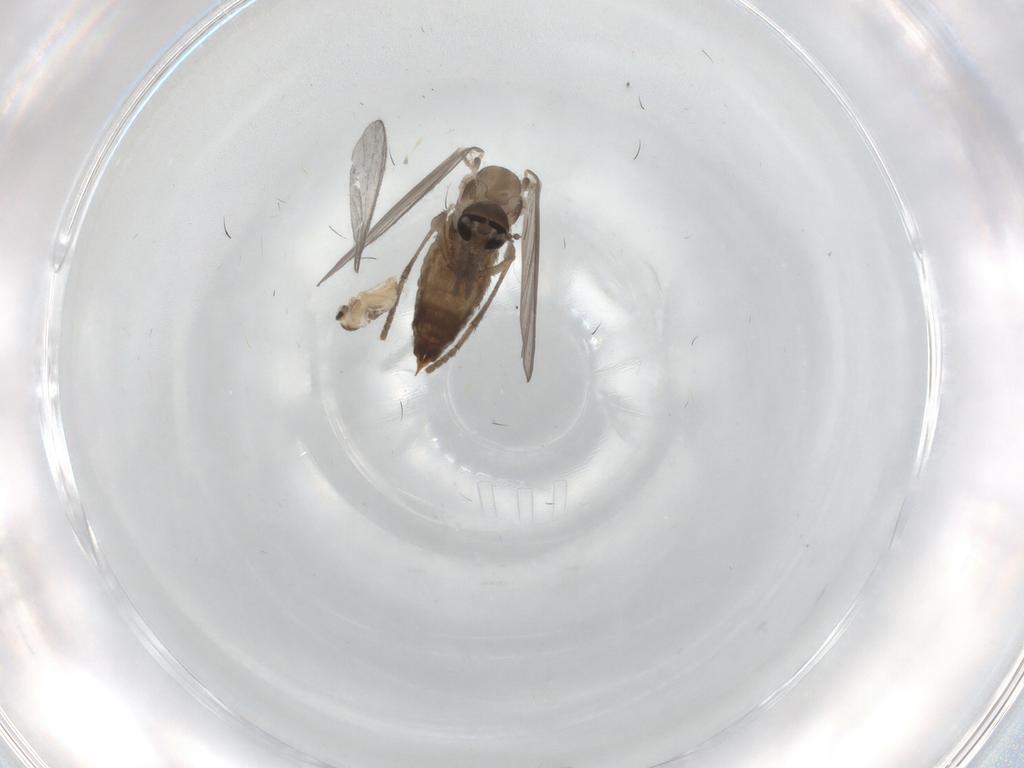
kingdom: Animalia
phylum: Arthropoda
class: Insecta
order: Diptera
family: Psychodidae
